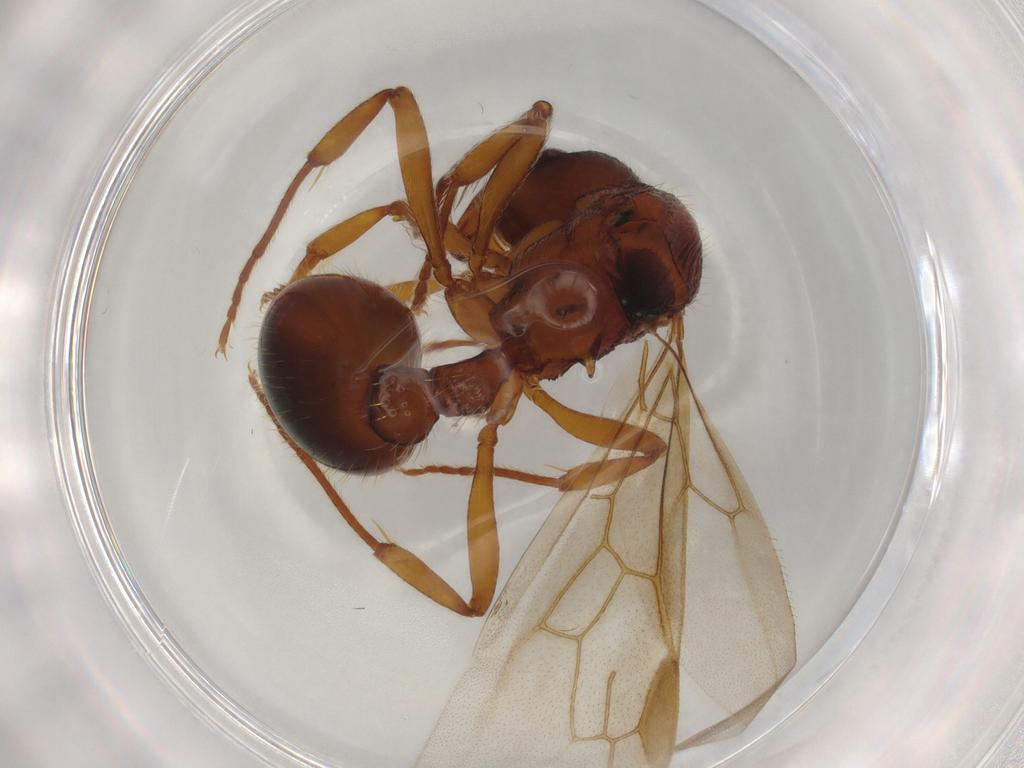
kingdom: Animalia
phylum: Arthropoda
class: Insecta
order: Hymenoptera
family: Formicidae
